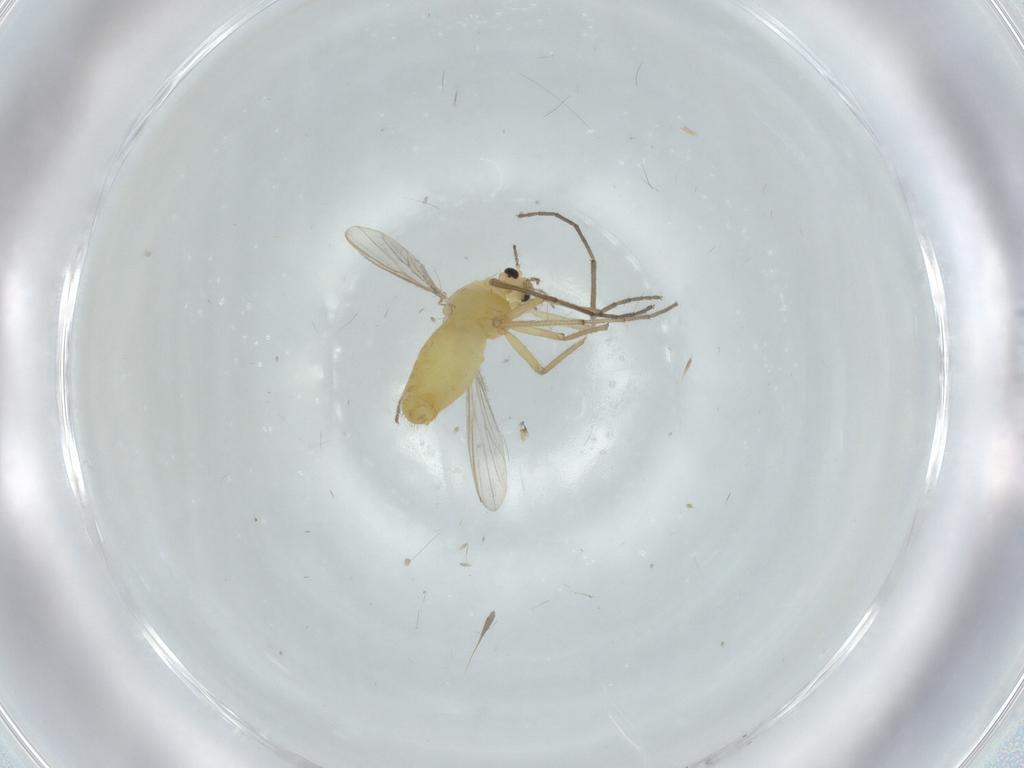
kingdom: Animalia
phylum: Arthropoda
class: Insecta
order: Diptera
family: Chironomidae
